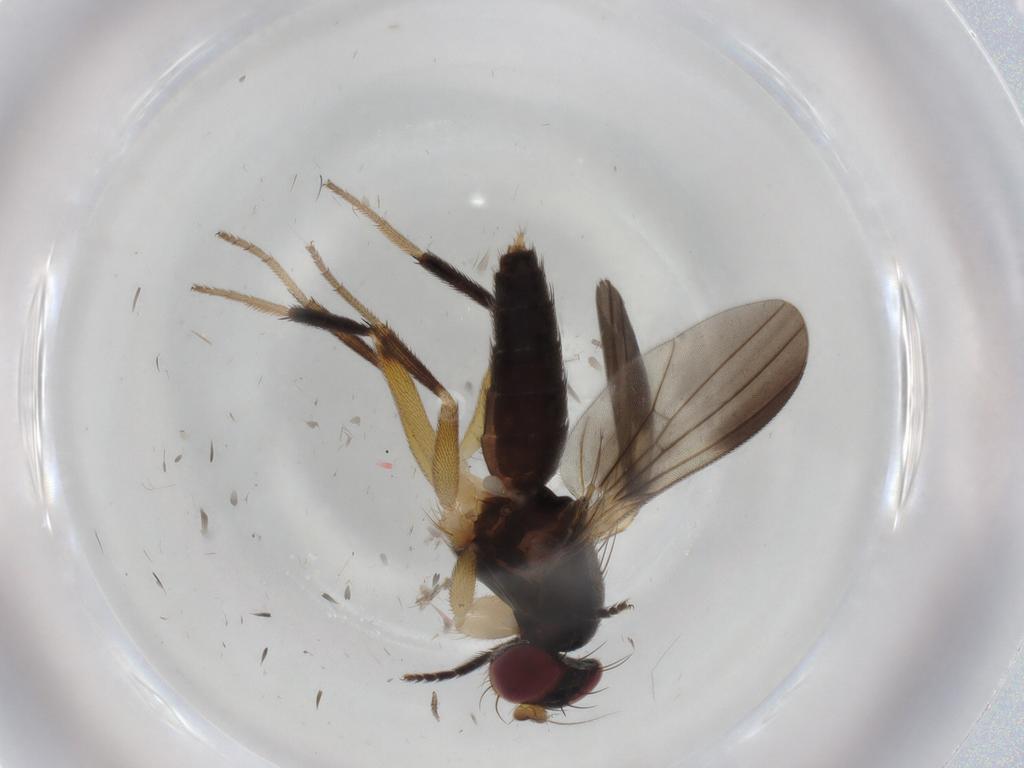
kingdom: Animalia
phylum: Arthropoda
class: Insecta
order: Diptera
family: Clusiidae
